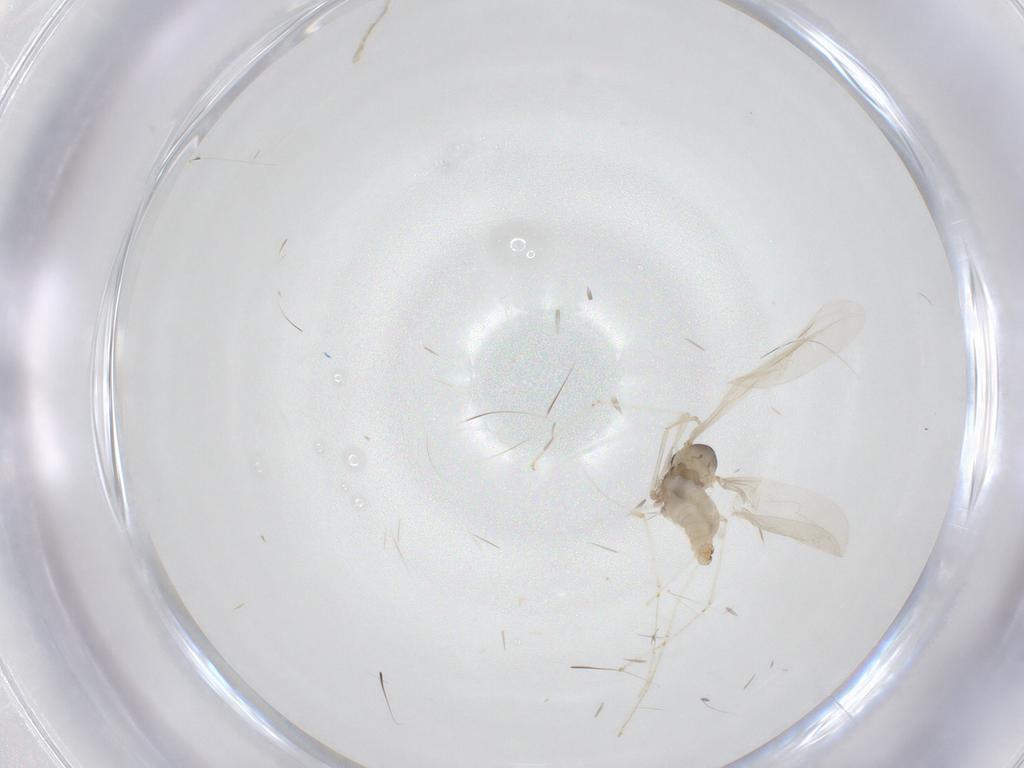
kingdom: Animalia
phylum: Arthropoda
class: Insecta
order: Diptera
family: Cecidomyiidae
